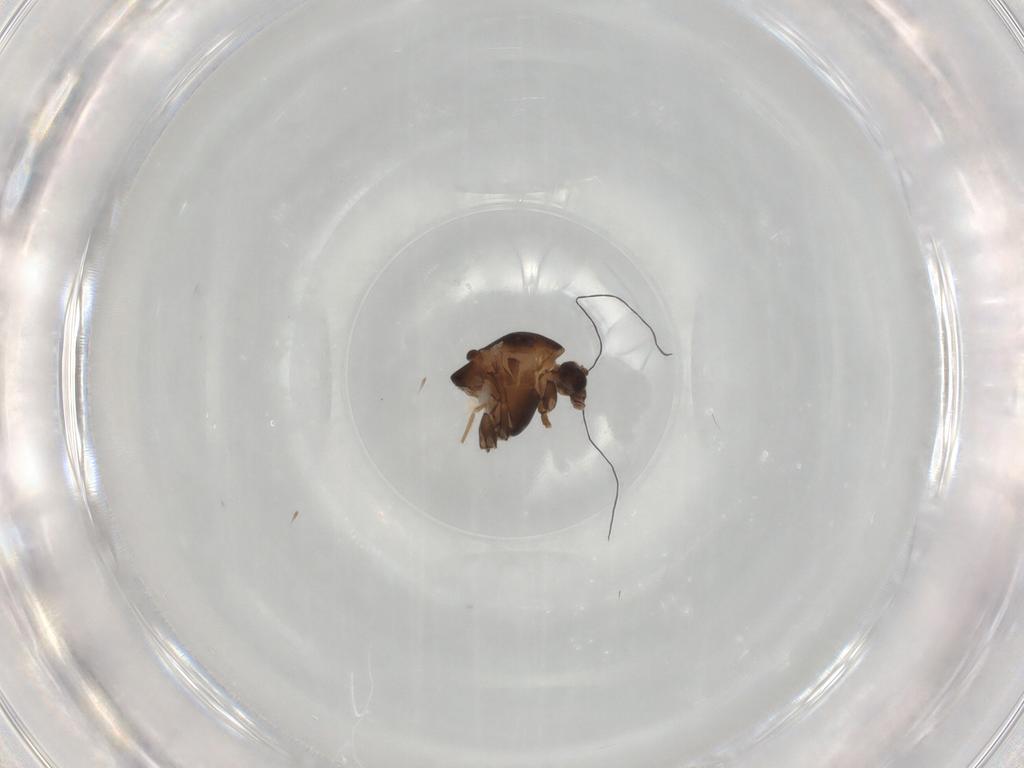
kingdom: Animalia
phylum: Arthropoda
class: Insecta
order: Diptera
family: Chironomidae
